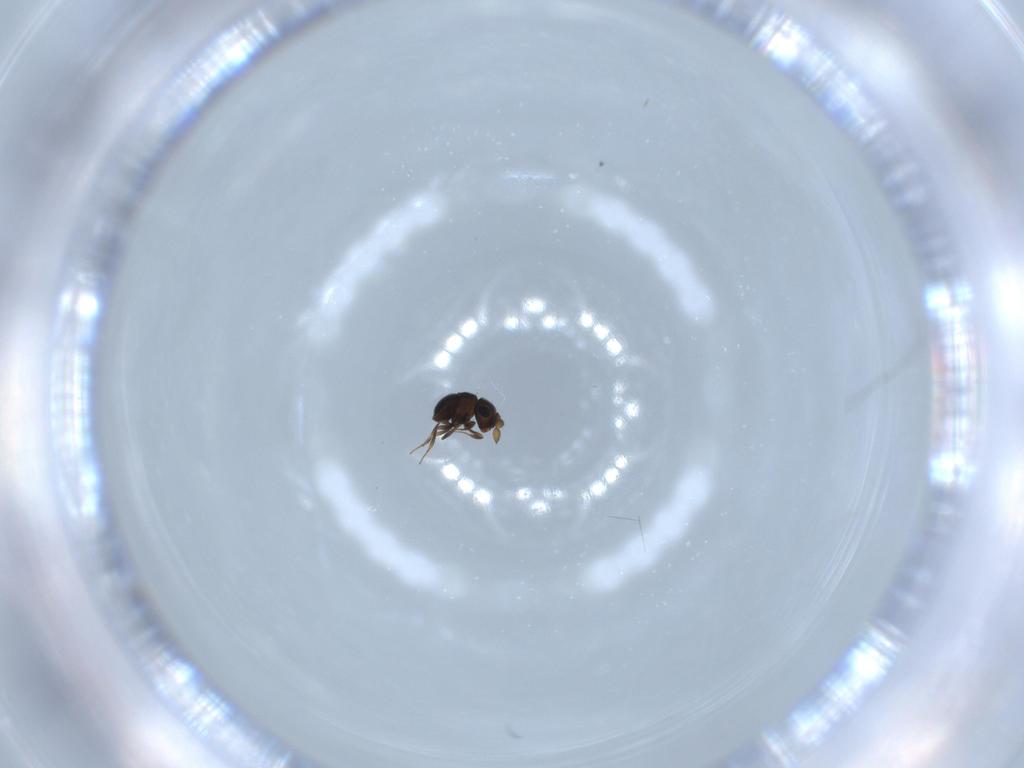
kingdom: Animalia
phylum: Arthropoda
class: Insecta
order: Hymenoptera
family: Scelionidae
